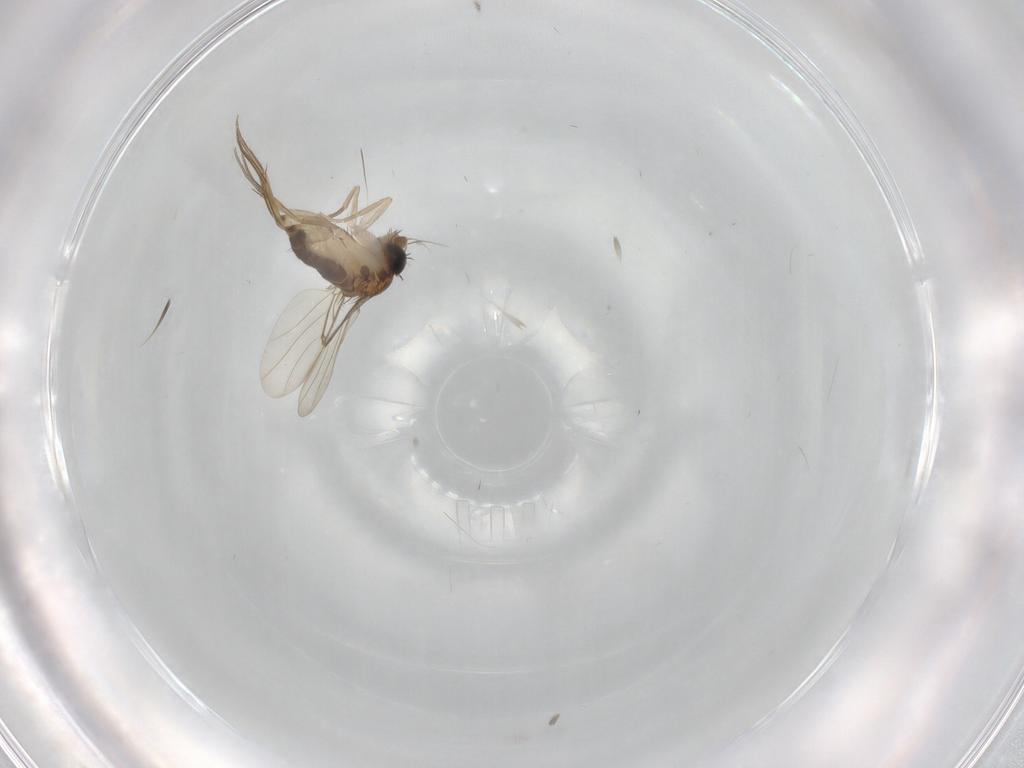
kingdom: Animalia
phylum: Arthropoda
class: Insecta
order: Diptera
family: Phoridae
